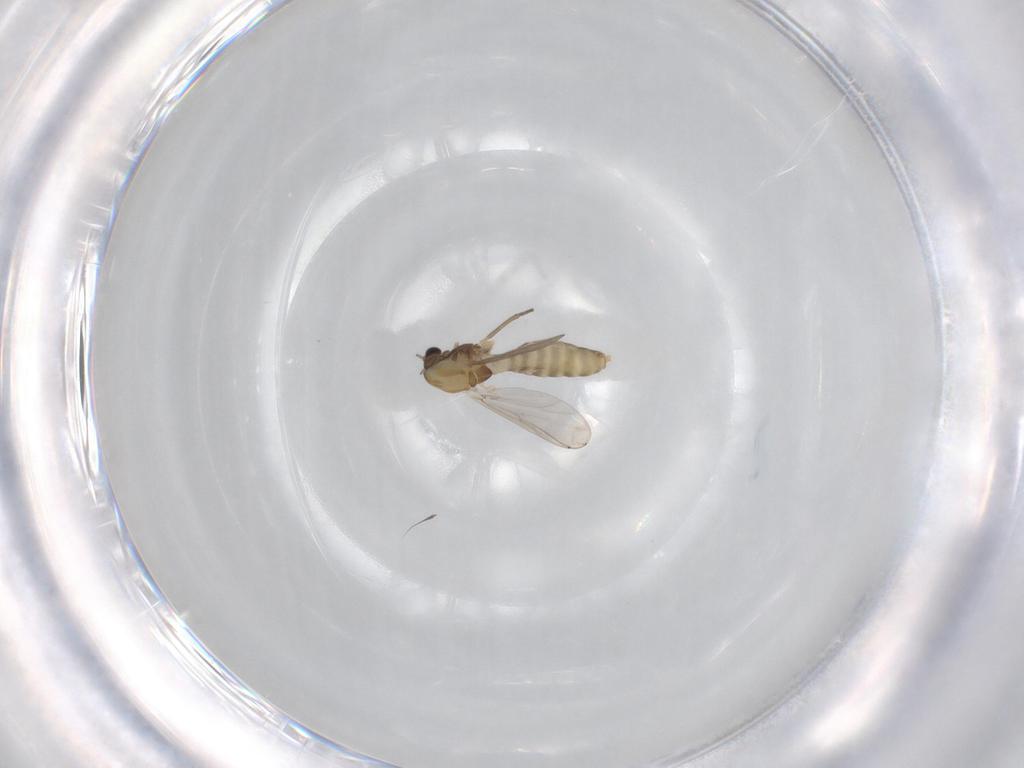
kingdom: Animalia
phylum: Arthropoda
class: Insecta
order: Diptera
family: Chironomidae
